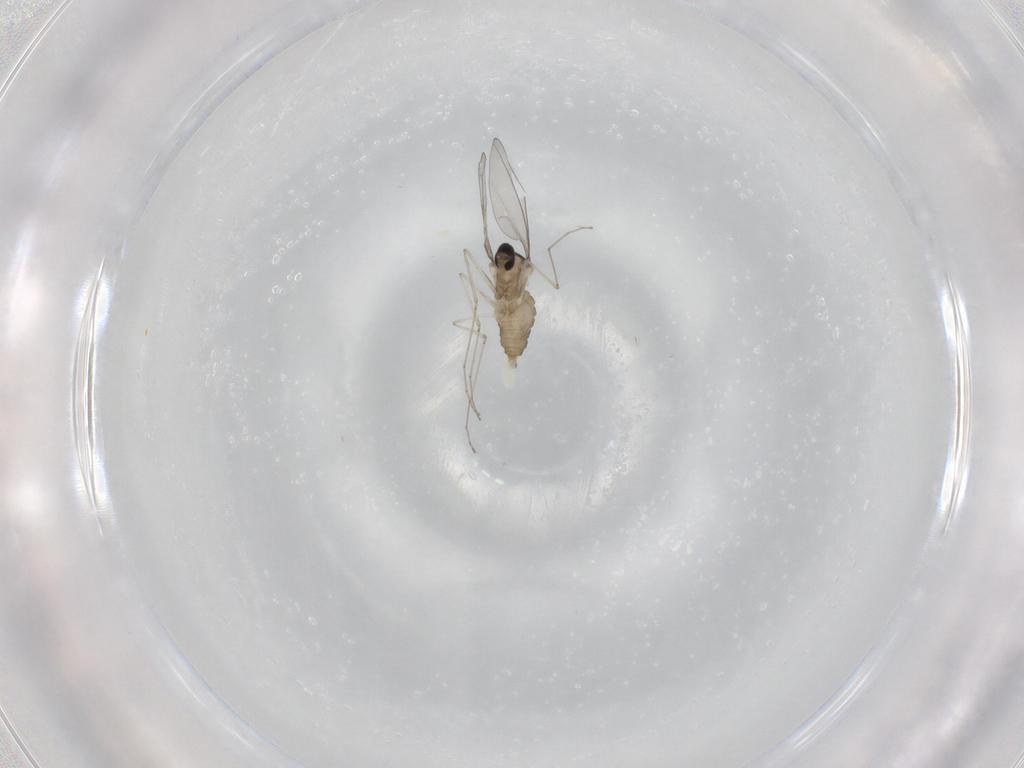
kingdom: Animalia
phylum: Arthropoda
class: Insecta
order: Diptera
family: Cecidomyiidae
